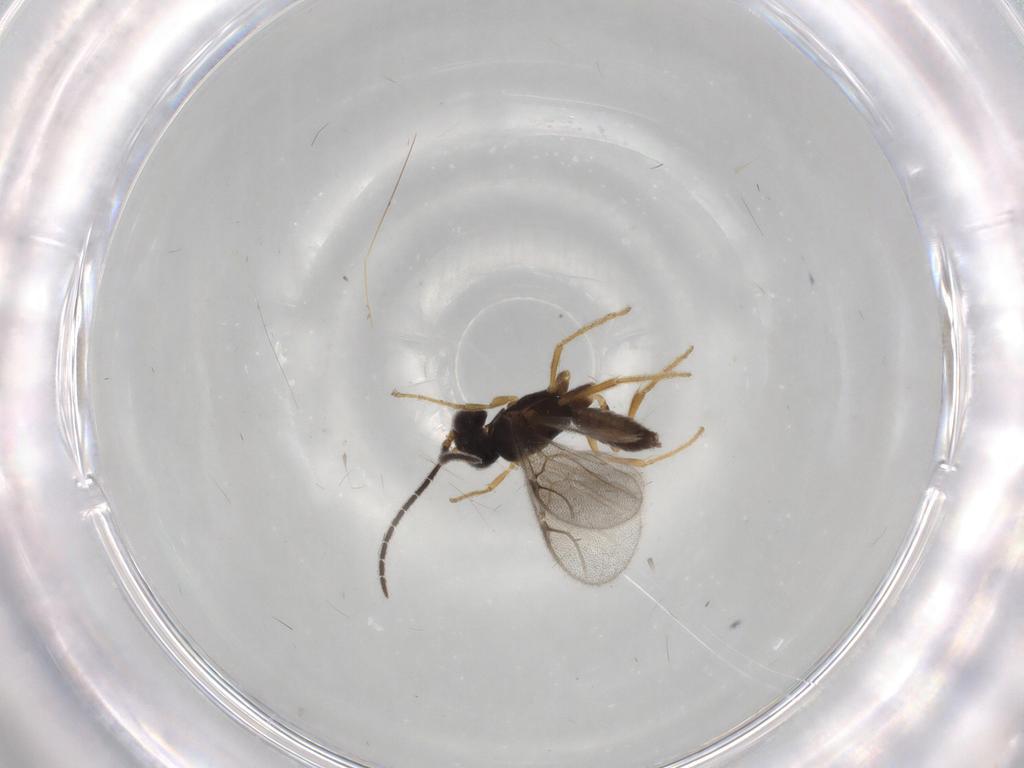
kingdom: Animalia
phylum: Arthropoda
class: Insecta
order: Hymenoptera
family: Dryinidae
